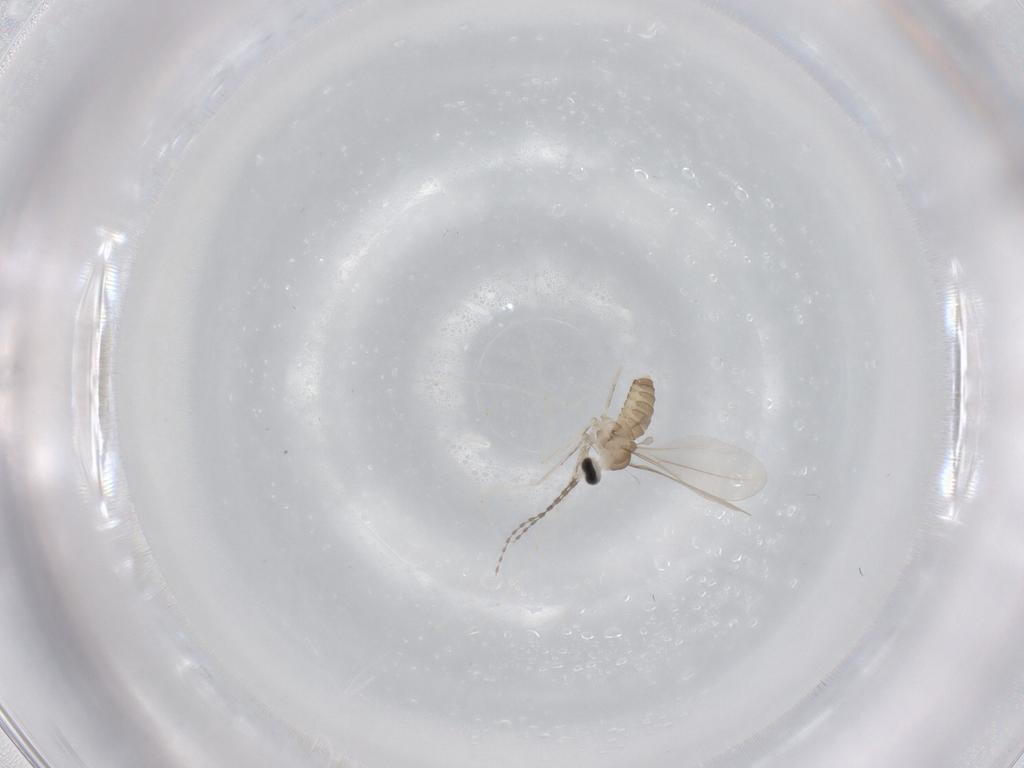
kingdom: Animalia
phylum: Arthropoda
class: Insecta
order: Diptera
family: Cecidomyiidae
